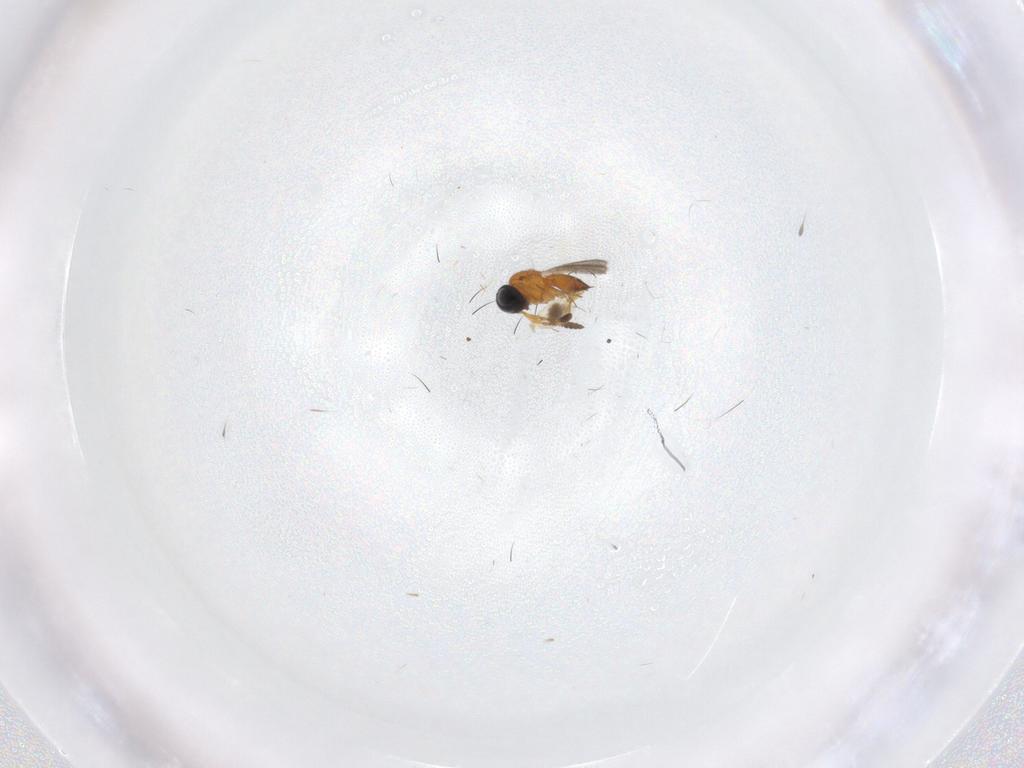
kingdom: Animalia
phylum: Arthropoda
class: Insecta
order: Hymenoptera
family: Scelionidae
